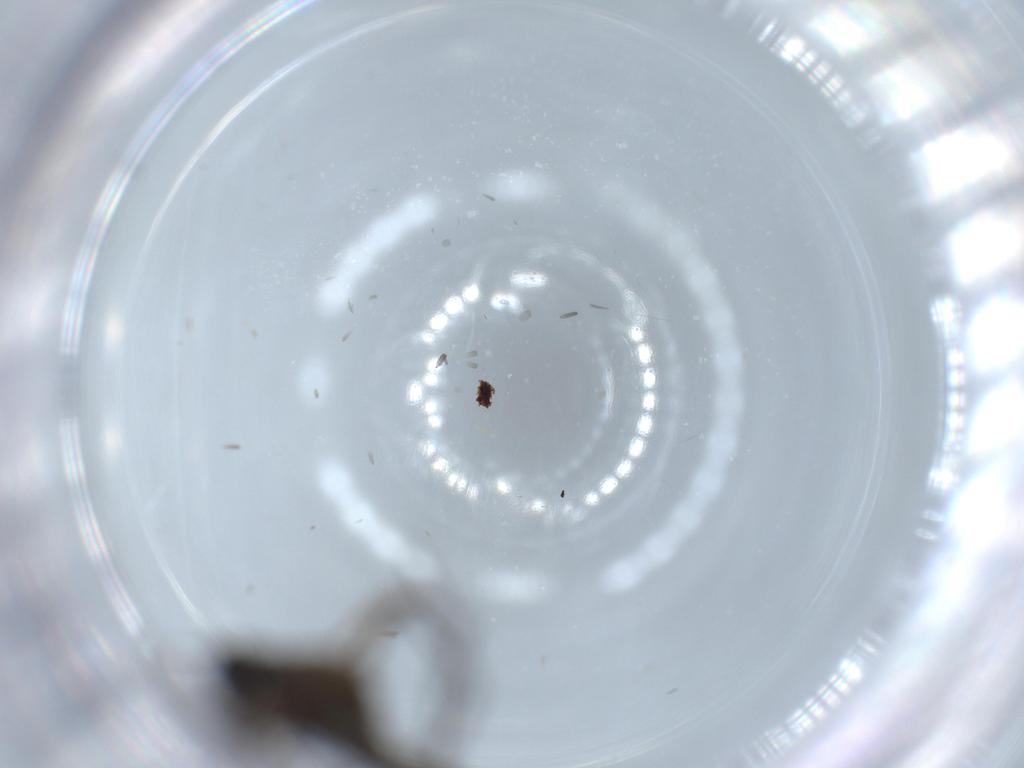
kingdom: Animalia
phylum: Arthropoda
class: Insecta
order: Diptera
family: Sciaridae
